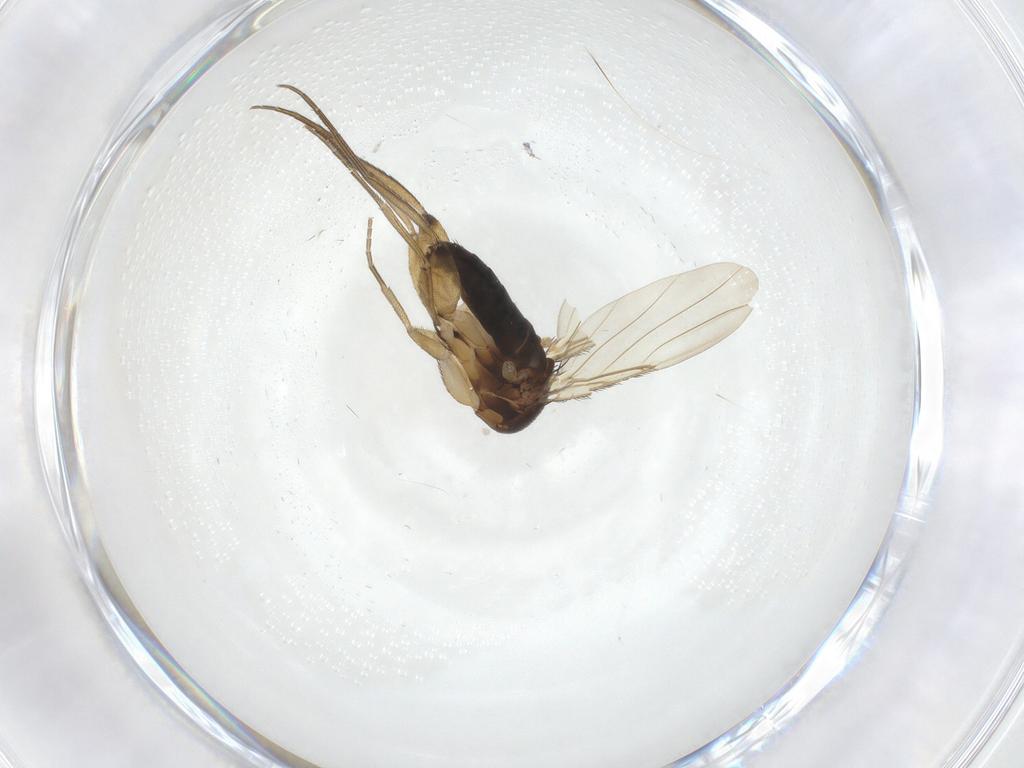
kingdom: Animalia
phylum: Arthropoda
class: Insecta
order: Diptera
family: Phoridae
